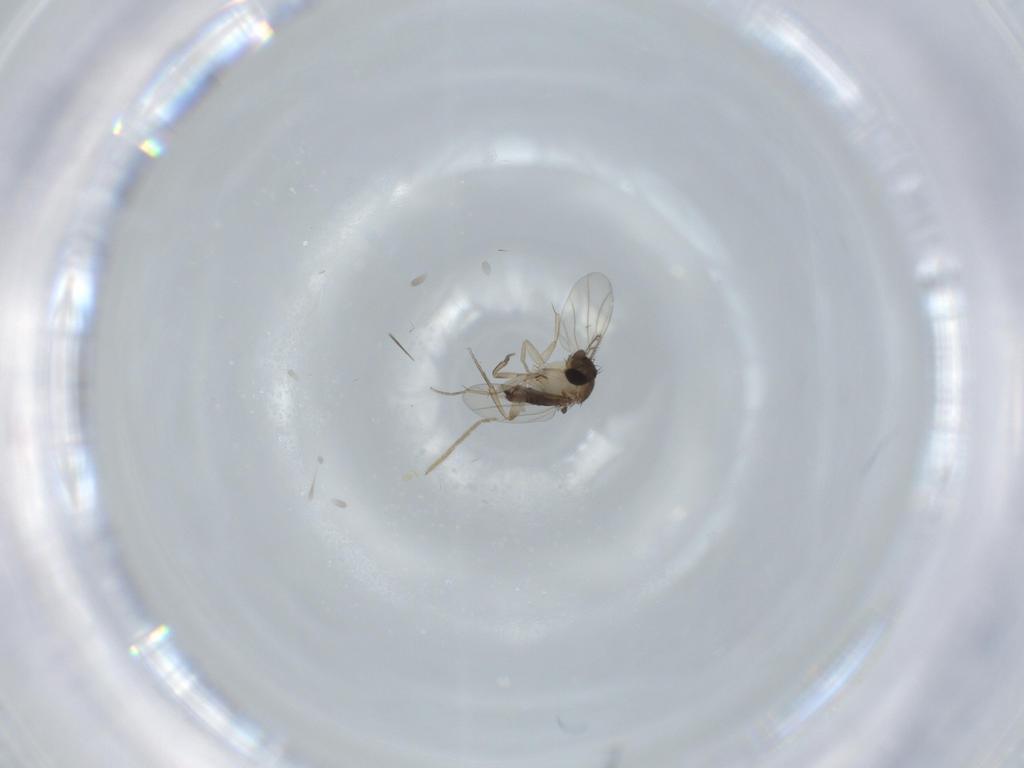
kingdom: Animalia
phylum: Arthropoda
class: Insecta
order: Diptera
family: Phoridae
